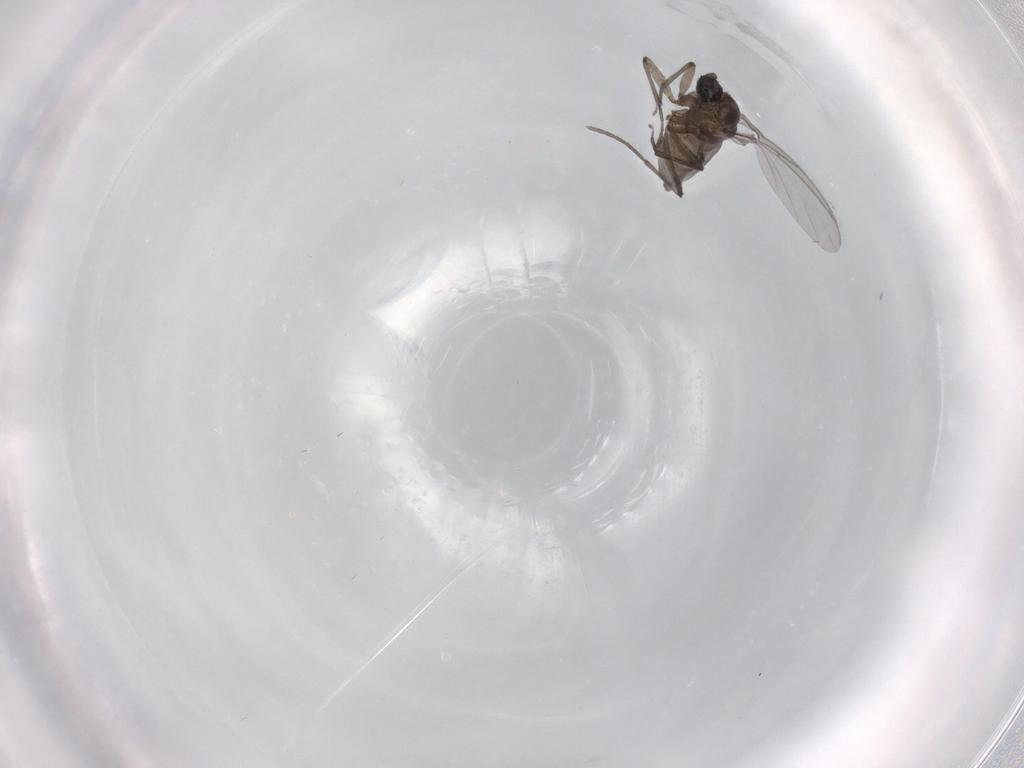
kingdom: Animalia
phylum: Arthropoda
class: Insecta
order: Diptera
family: Sciaridae
